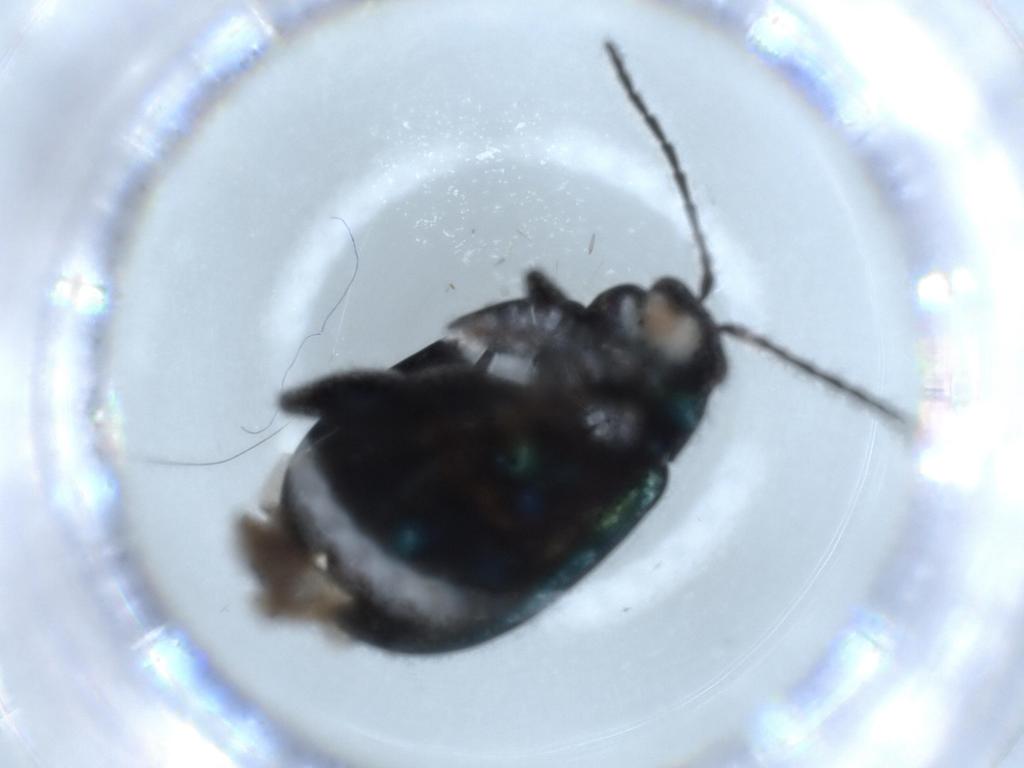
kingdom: Animalia
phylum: Arthropoda
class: Insecta
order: Coleoptera
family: Chrysomelidae
